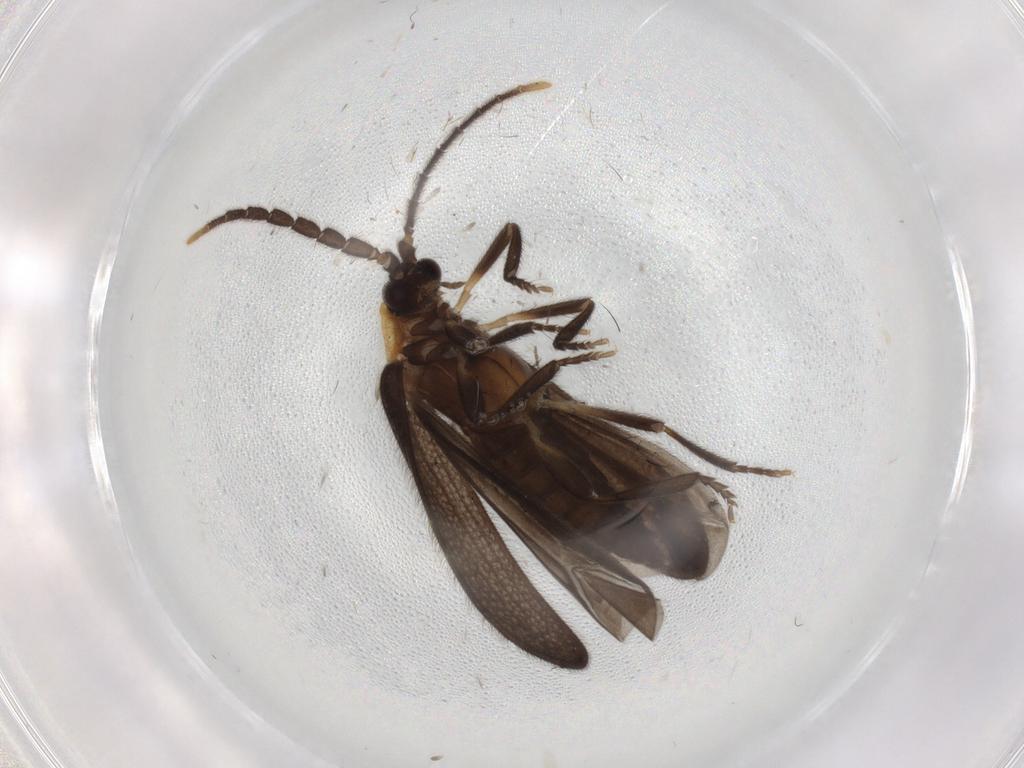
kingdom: Animalia
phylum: Arthropoda
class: Insecta
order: Coleoptera
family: Lycidae
